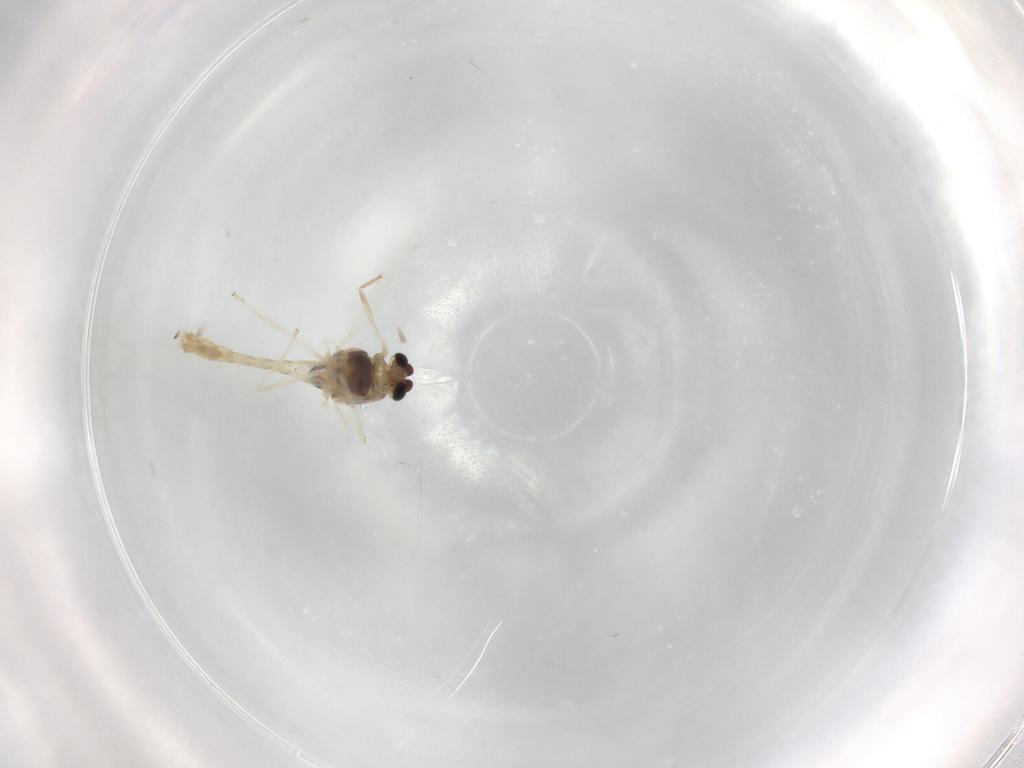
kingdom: Animalia
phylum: Arthropoda
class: Insecta
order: Diptera
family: Chironomidae
